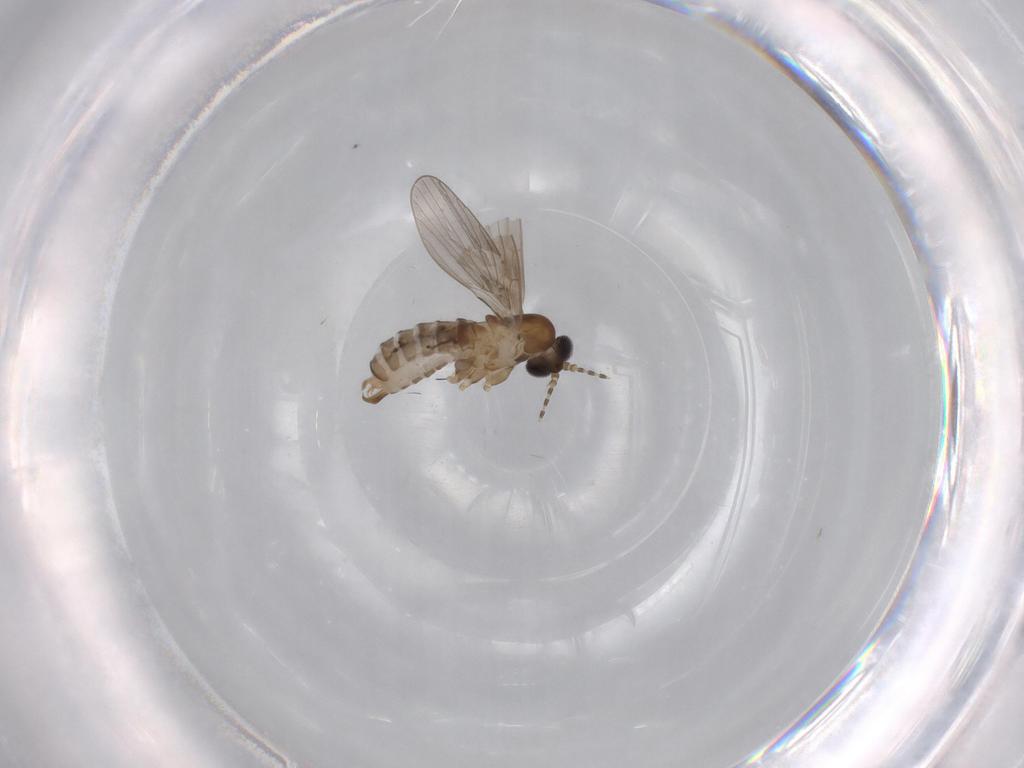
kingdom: Animalia
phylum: Arthropoda
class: Insecta
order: Diptera
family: Psychodidae
